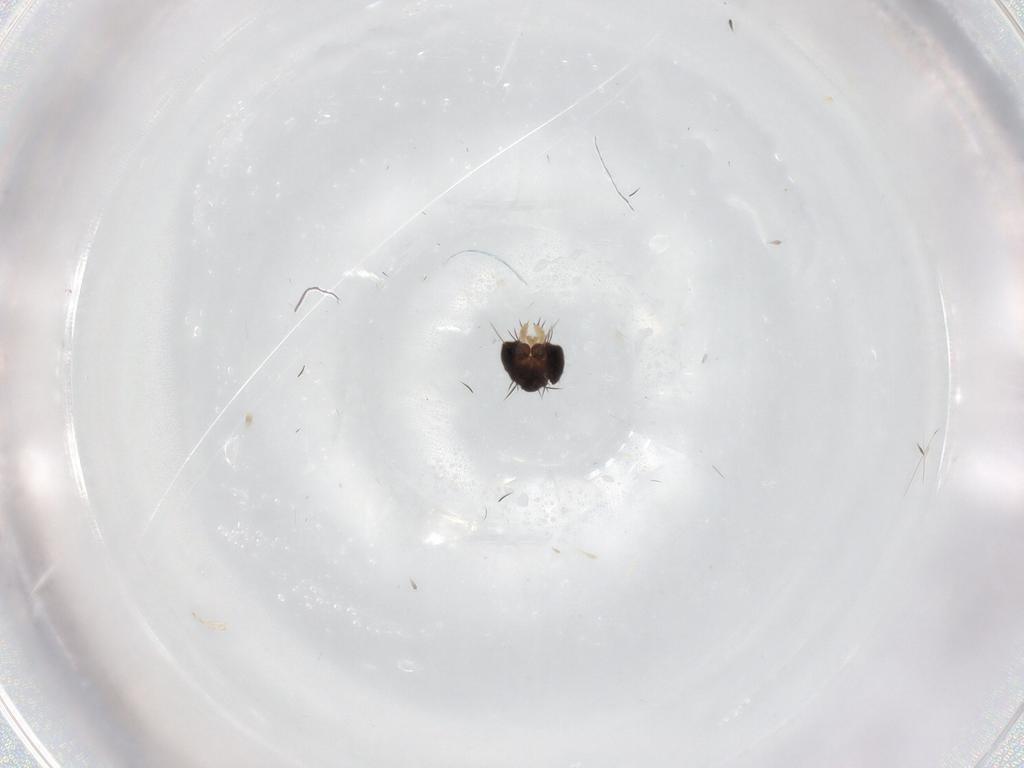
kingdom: Animalia
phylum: Arthropoda
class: Insecta
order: Diptera
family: Phoridae
